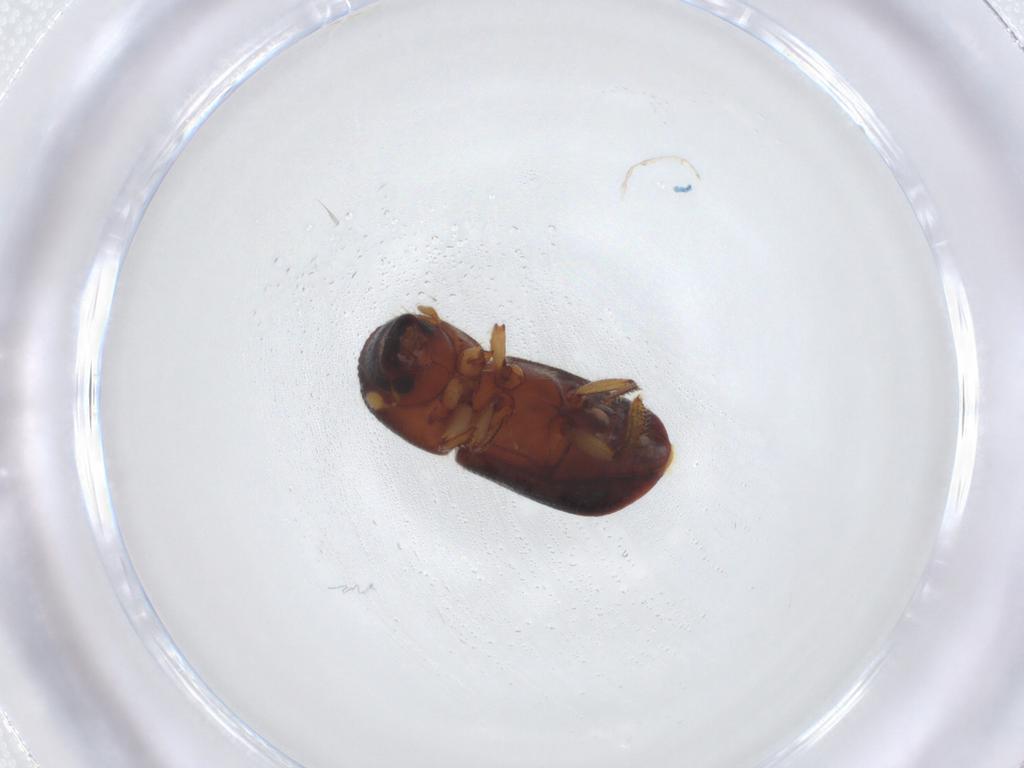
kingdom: Animalia
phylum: Arthropoda
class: Insecta
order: Coleoptera
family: Curculionidae
